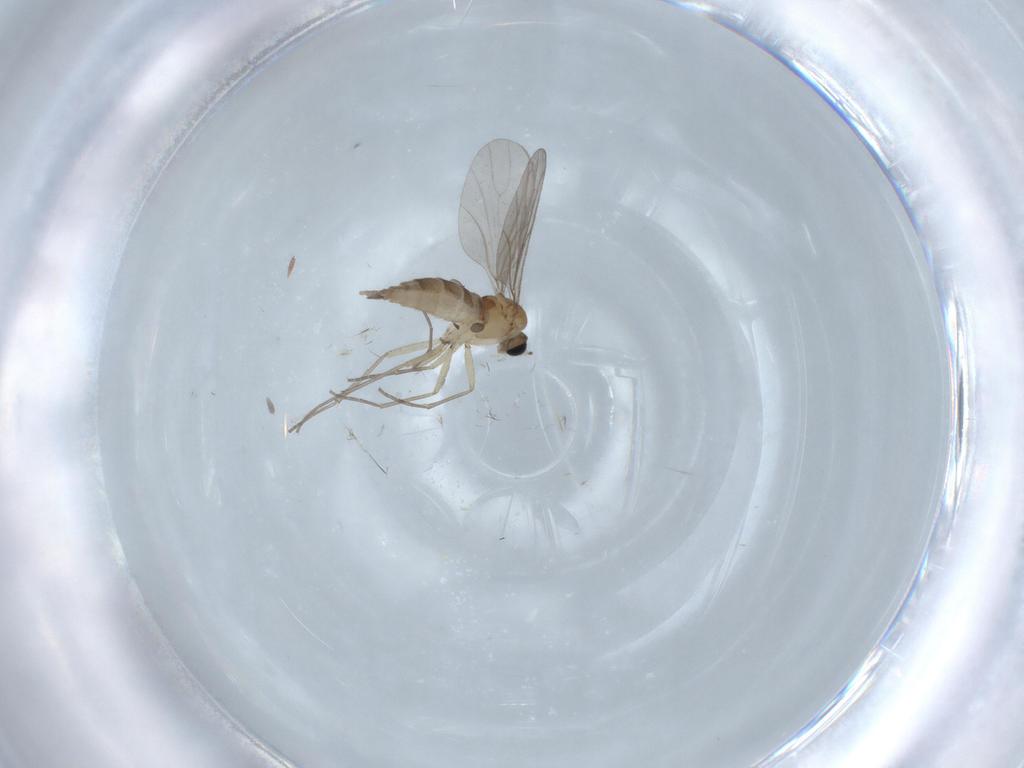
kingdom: Animalia
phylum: Arthropoda
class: Insecta
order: Diptera
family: Sciaridae
